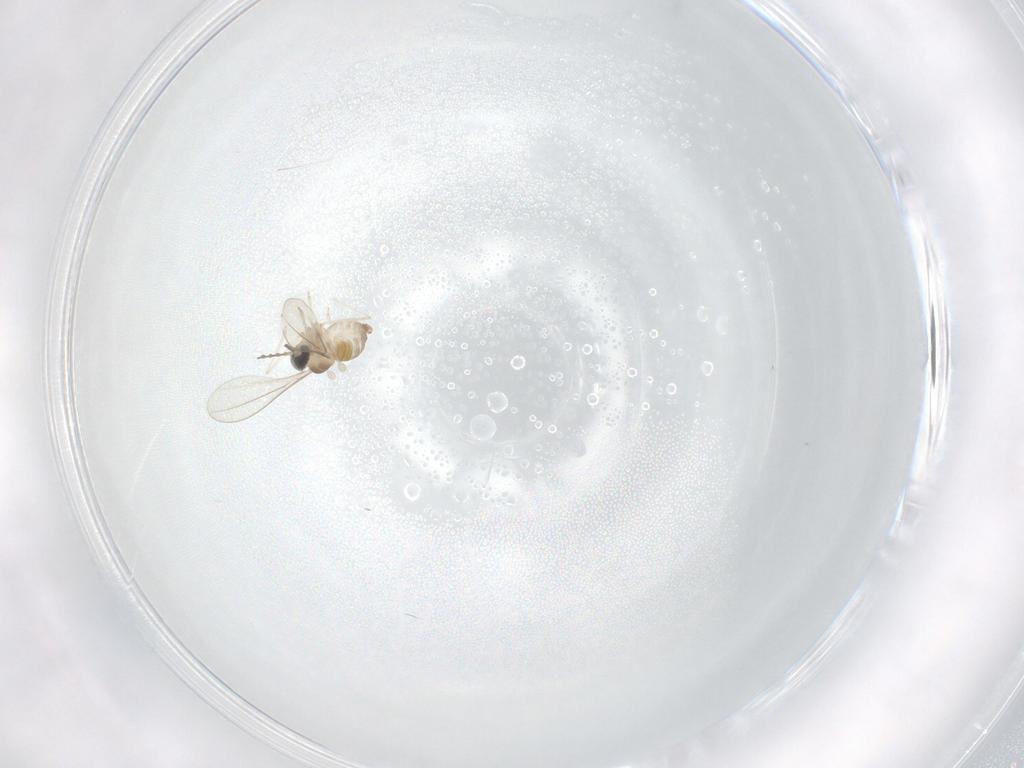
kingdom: Animalia
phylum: Arthropoda
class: Insecta
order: Diptera
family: Cecidomyiidae
